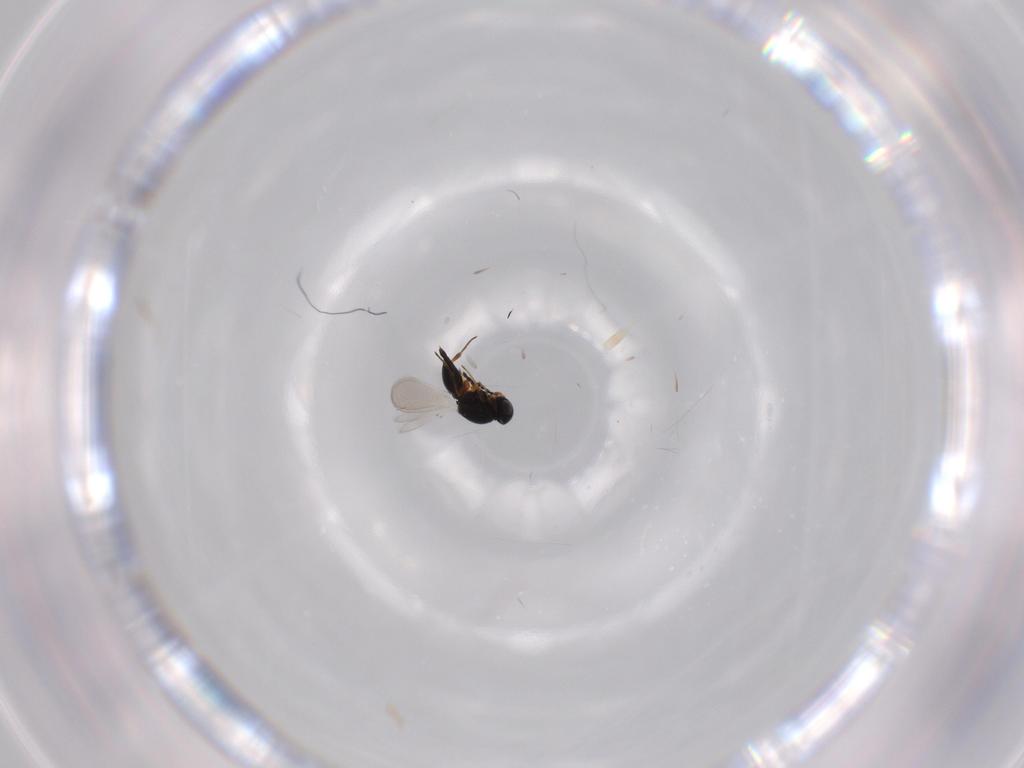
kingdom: Animalia
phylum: Arthropoda
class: Insecta
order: Hymenoptera
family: Platygastridae
